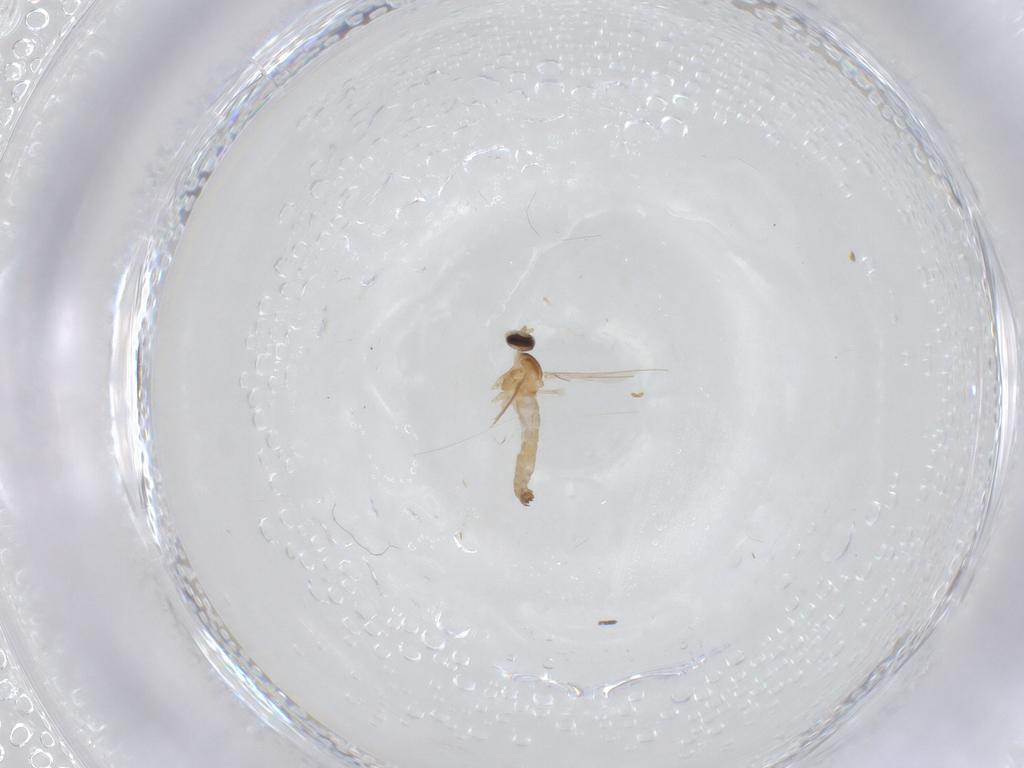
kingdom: Animalia
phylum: Arthropoda
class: Insecta
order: Diptera
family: Cecidomyiidae
